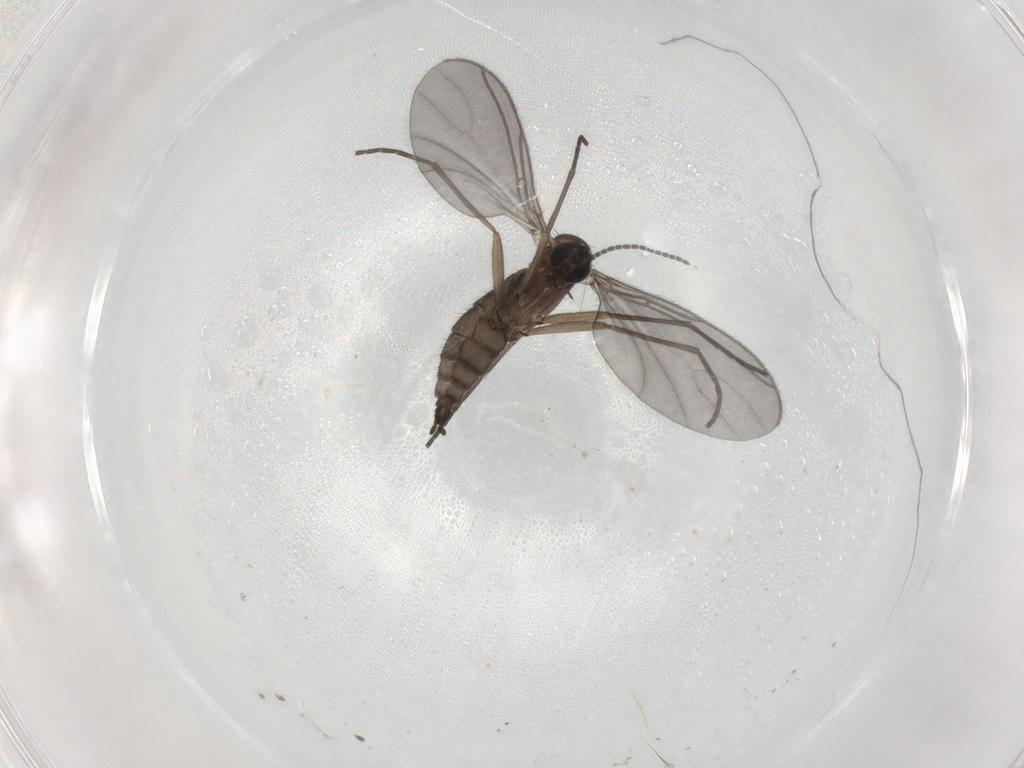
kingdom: Animalia
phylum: Arthropoda
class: Insecta
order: Diptera
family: Sciaridae
